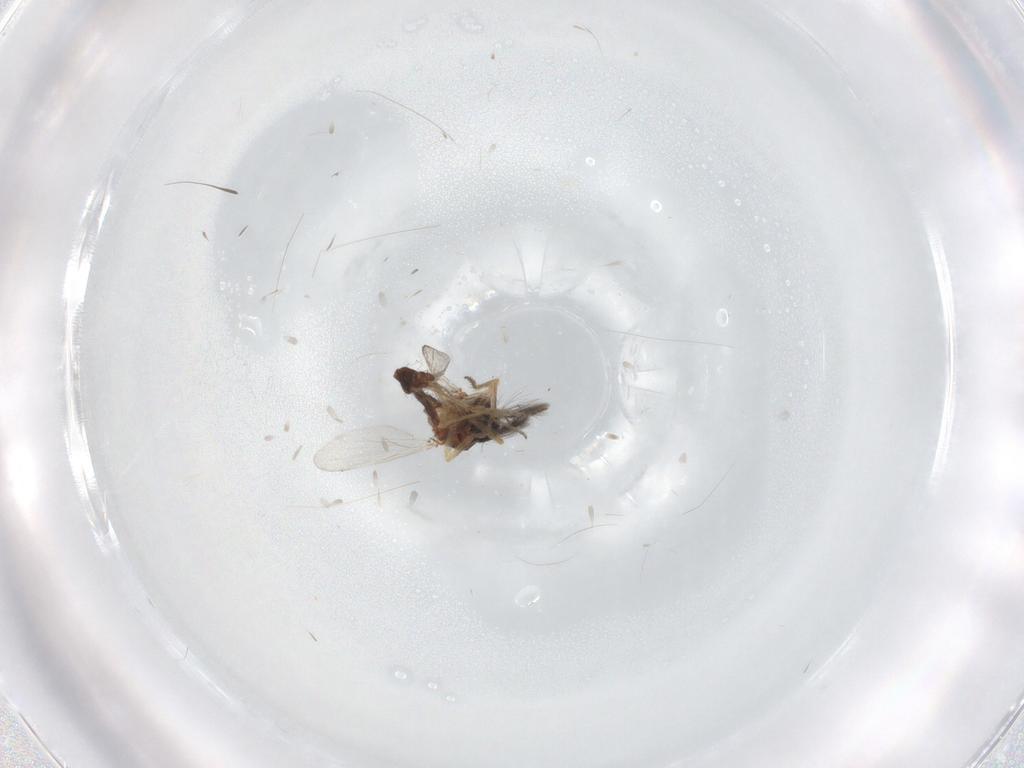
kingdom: Animalia
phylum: Arthropoda
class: Insecta
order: Diptera
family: Ceratopogonidae
